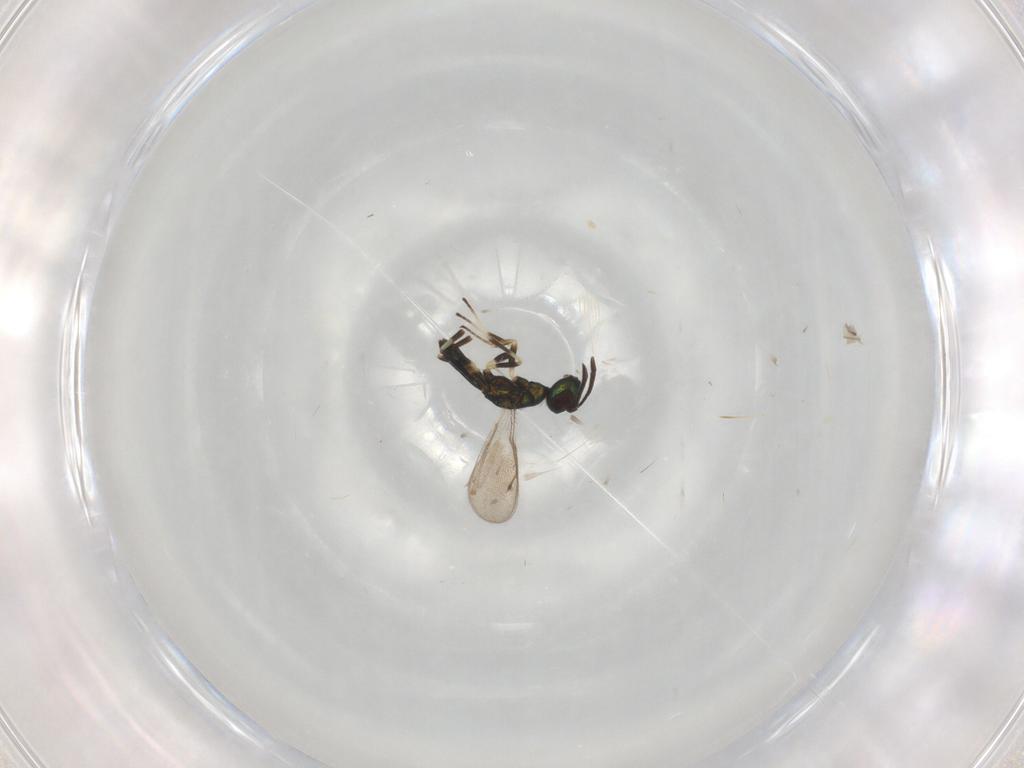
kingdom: Animalia
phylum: Arthropoda
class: Insecta
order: Hymenoptera
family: Formicidae
